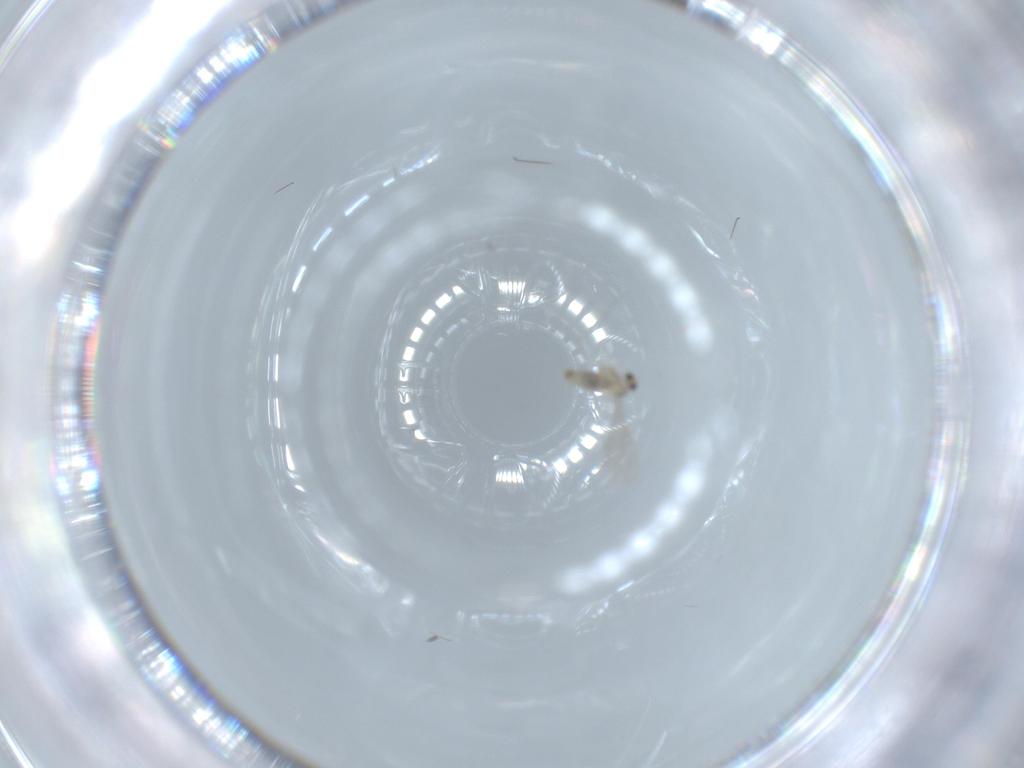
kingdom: Animalia
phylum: Arthropoda
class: Insecta
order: Diptera
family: Cecidomyiidae
